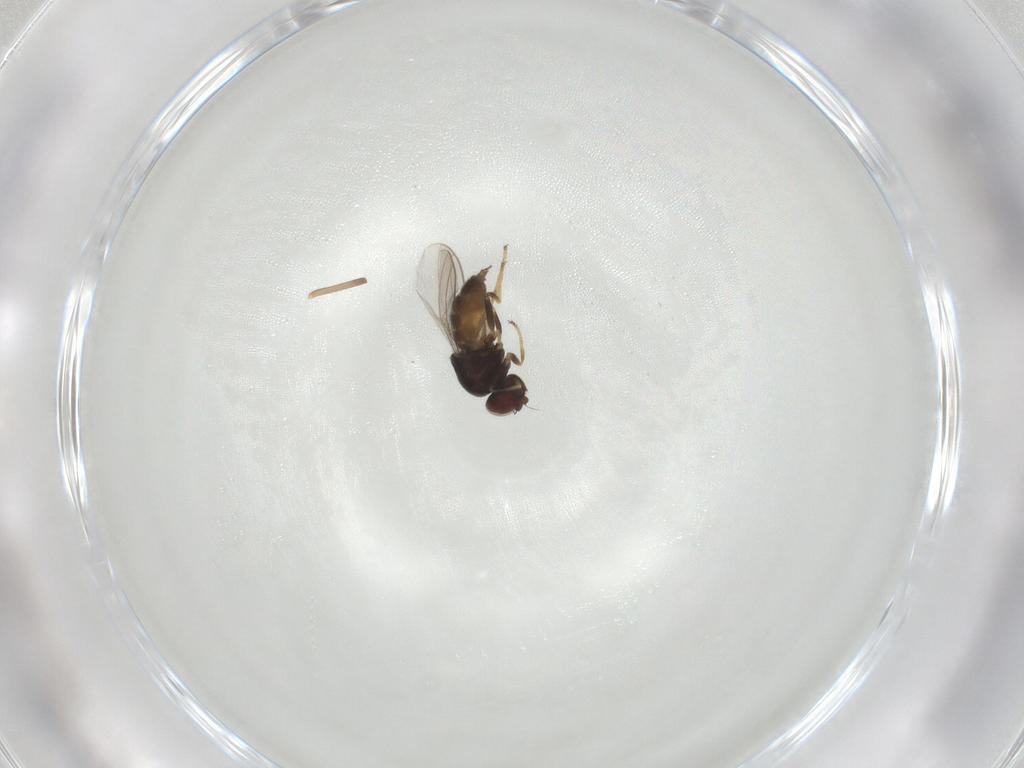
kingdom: Animalia
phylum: Arthropoda
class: Insecta
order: Diptera
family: Chloropidae
